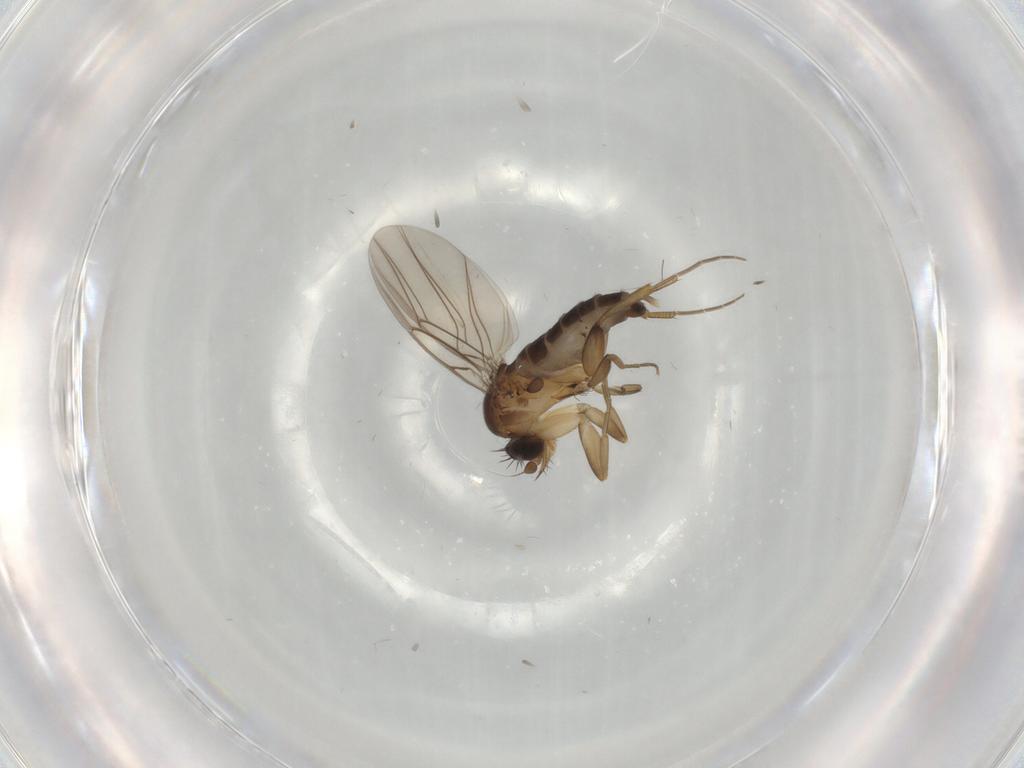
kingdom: Animalia
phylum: Arthropoda
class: Insecta
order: Diptera
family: Phoridae
